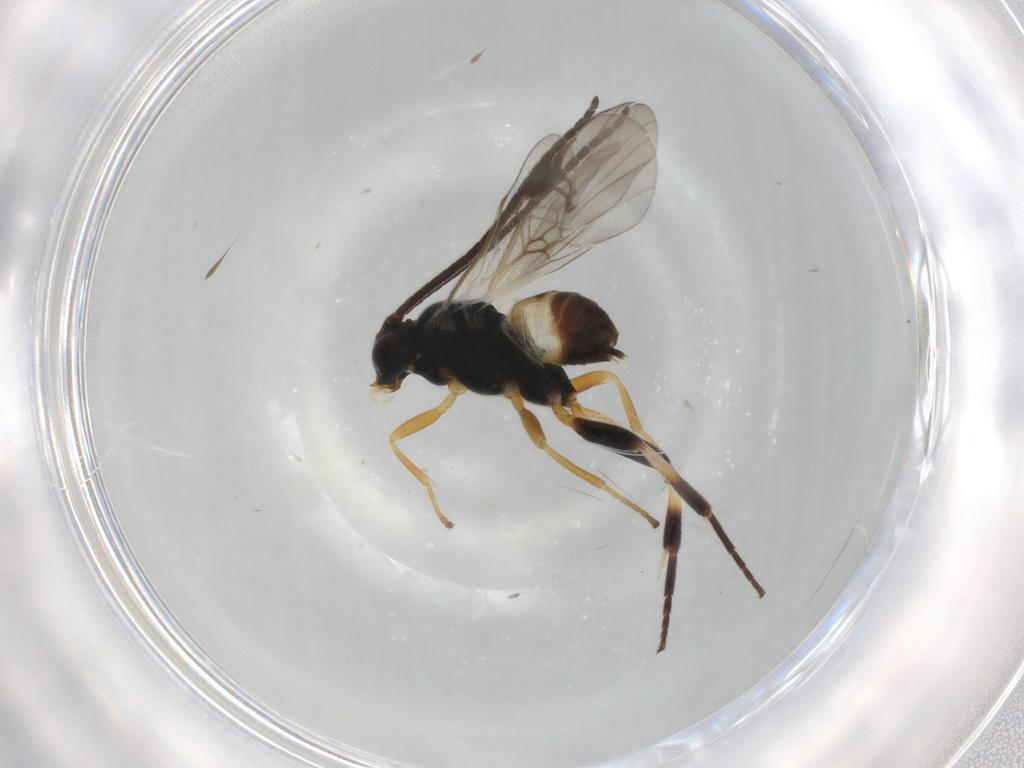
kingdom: Animalia
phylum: Arthropoda
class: Insecta
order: Hymenoptera
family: Braconidae
